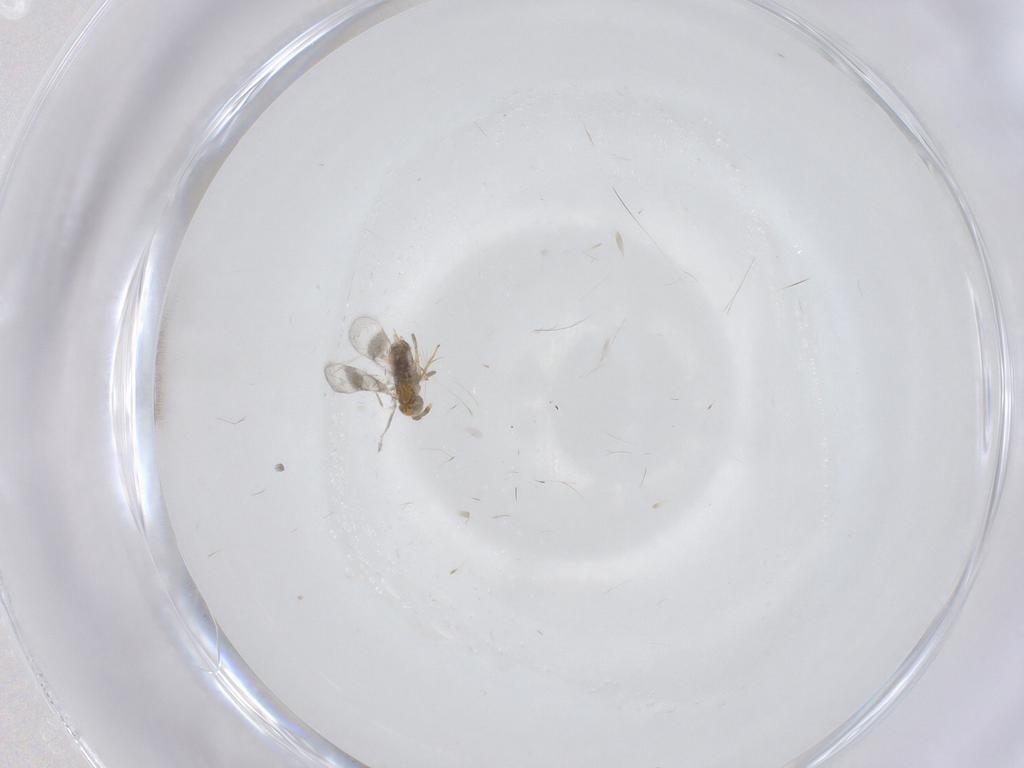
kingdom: Animalia
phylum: Arthropoda
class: Insecta
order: Hymenoptera
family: Aphelinidae
